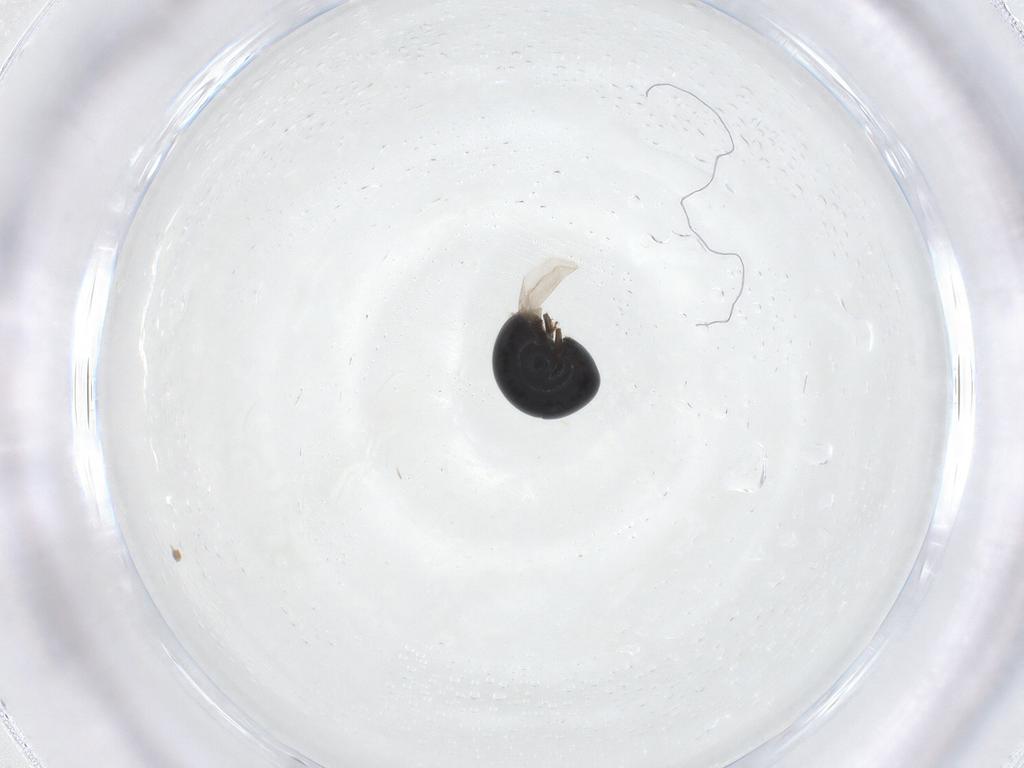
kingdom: Animalia
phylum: Arthropoda
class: Insecta
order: Coleoptera
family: Cybocephalidae
